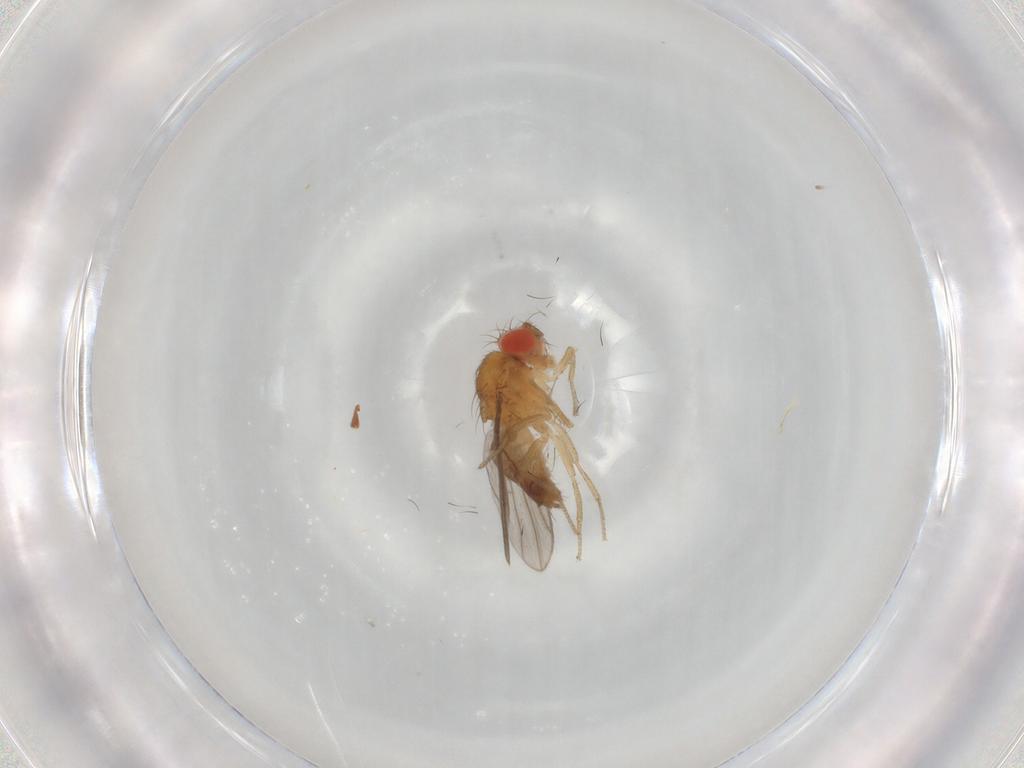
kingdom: Animalia
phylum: Arthropoda
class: Insecta
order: Diptera
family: Drosophilidae
